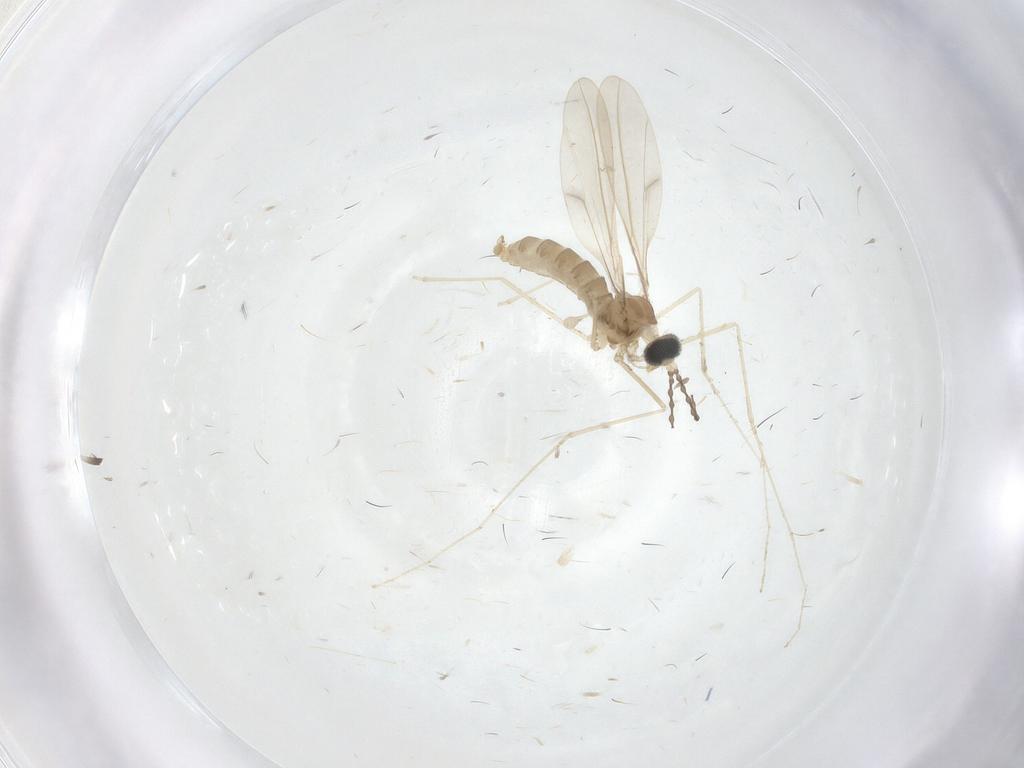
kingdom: Animalia
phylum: Arthropoda
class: Insecta
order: Diptera
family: Cecidomyiidae
